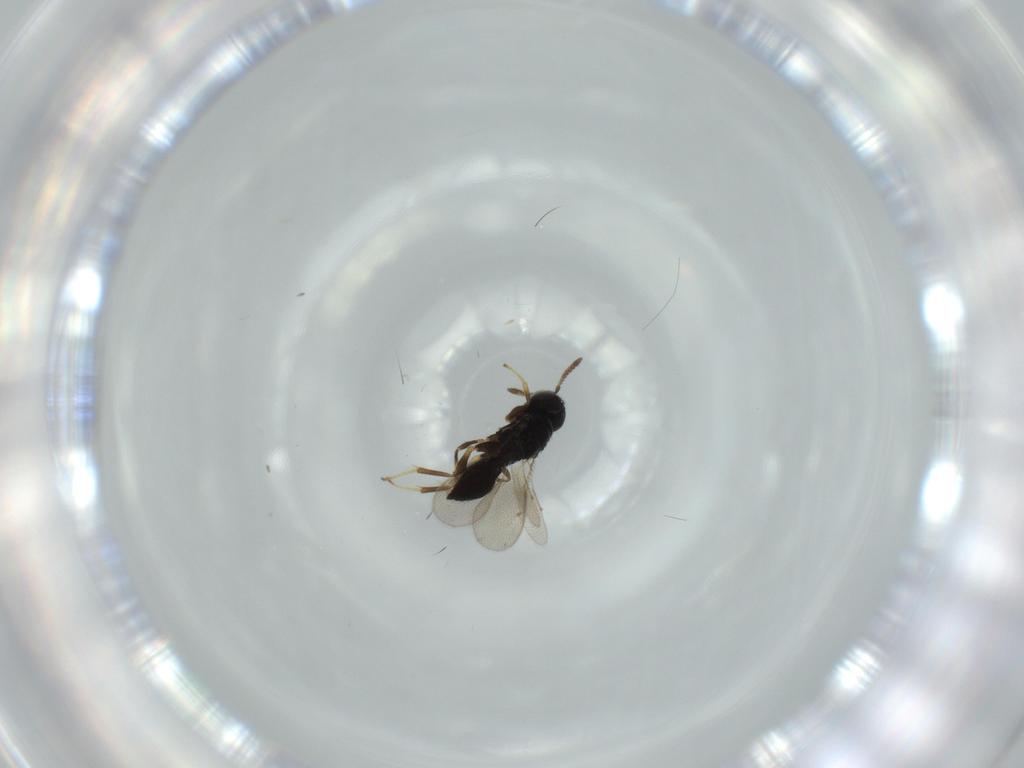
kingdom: Animalia
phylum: Arthropoda
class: Insecta
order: Hymenoptera
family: Pteromalidae
